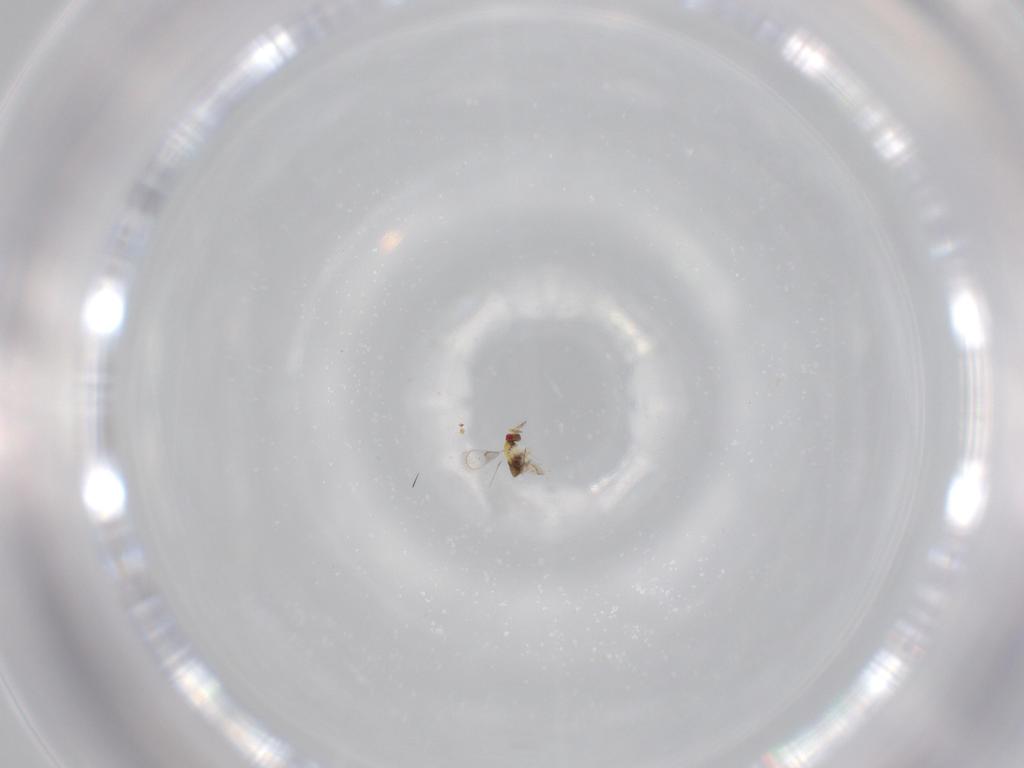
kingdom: Animalia
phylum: Arthropoda
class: Insecta
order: Hymenoptera
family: Trichogrammatidae
